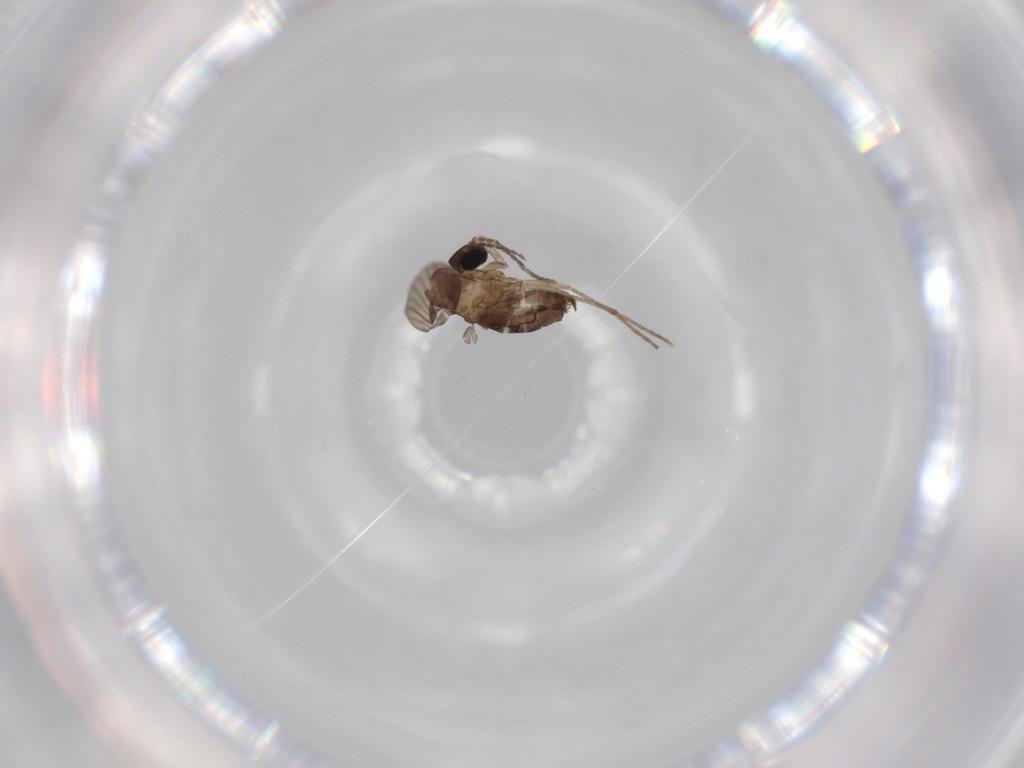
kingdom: Animalia
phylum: Arthropoda
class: Insecta
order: Diptera
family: Psychodidae
